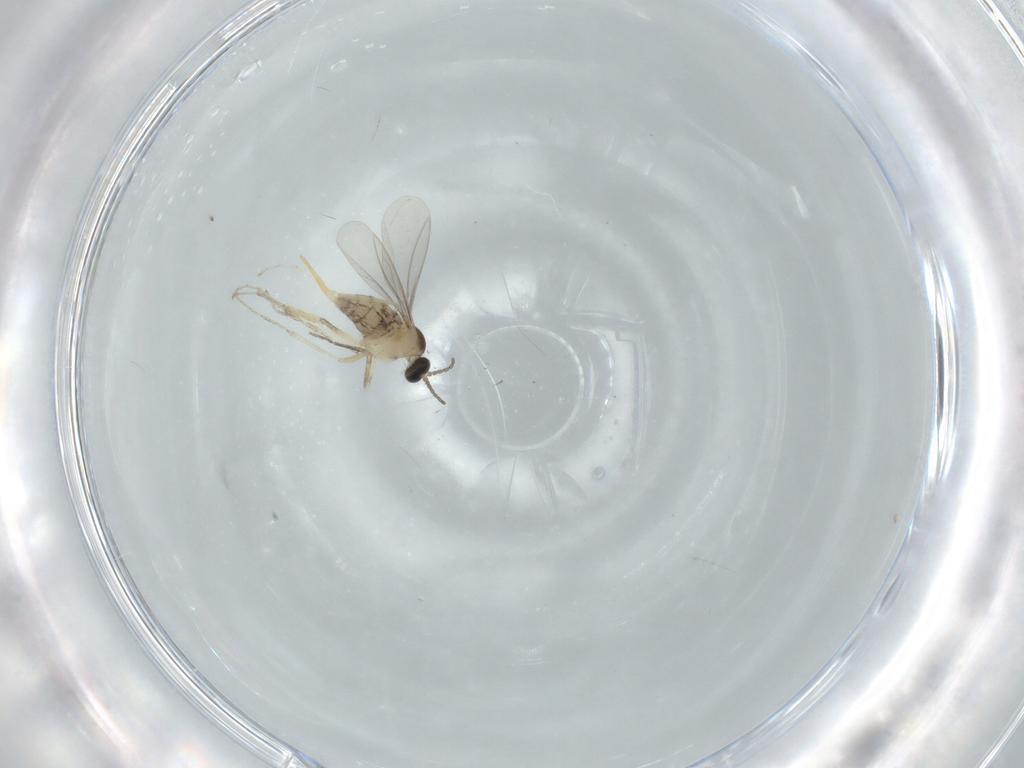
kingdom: Animalia
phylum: Arthropoda
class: Insecta
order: Diptera
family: Cecidomyiidae
